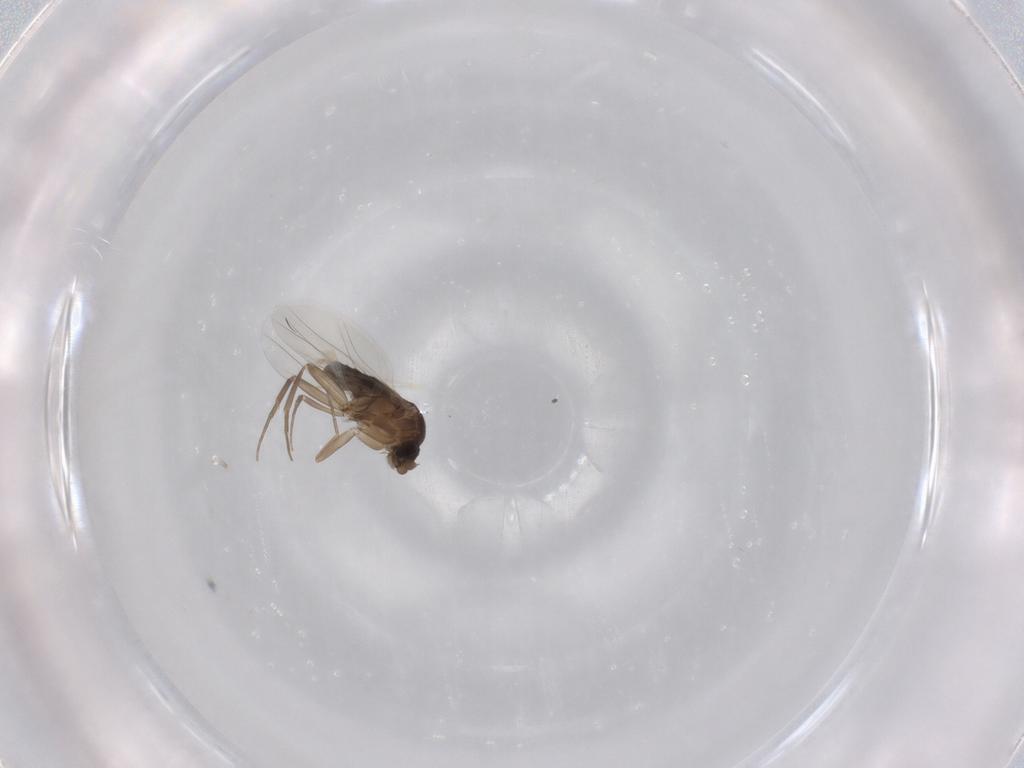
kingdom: Animalia
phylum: Arthropoda
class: Insecta
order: Diptera
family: Phoridae
